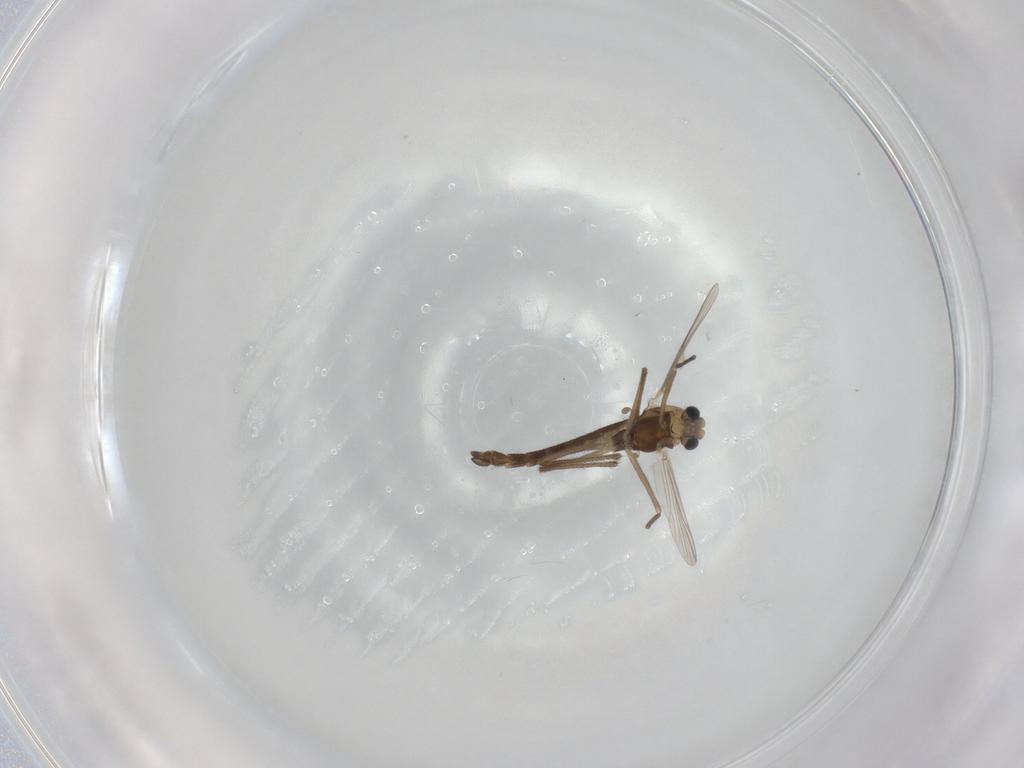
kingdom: Animalia
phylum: Arthropoda
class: Insecta
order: Diptera
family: Chironomidae
